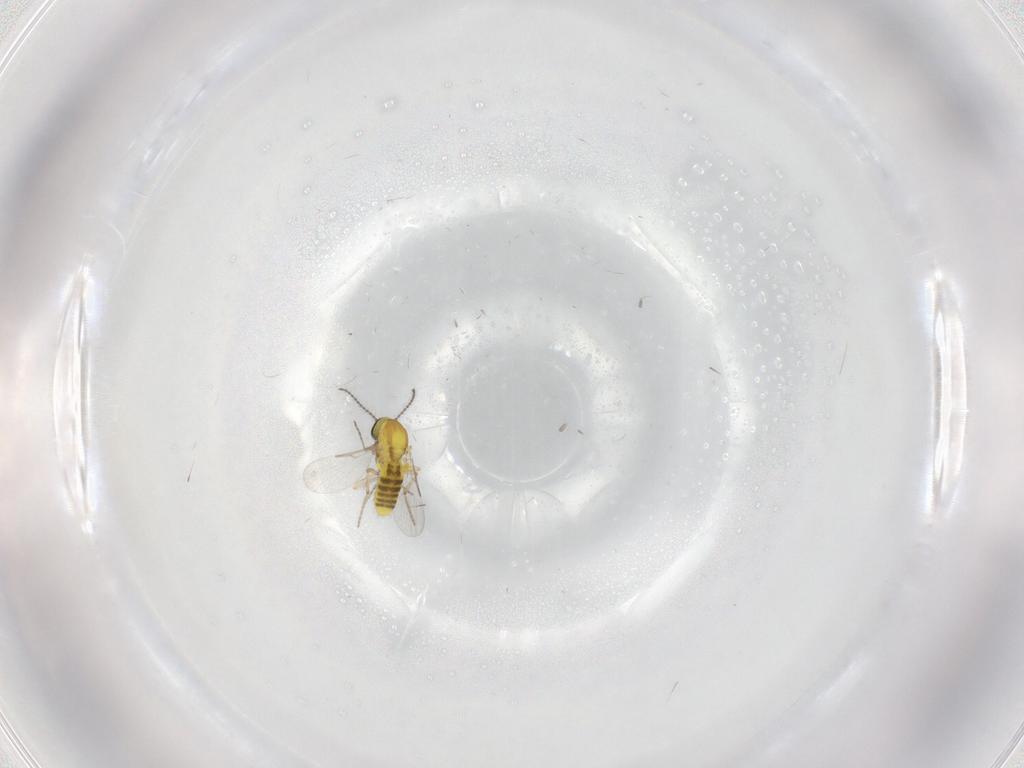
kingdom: Animalia
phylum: Arthropoda
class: Insecta
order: Diptera
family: Ceratopogonidae
